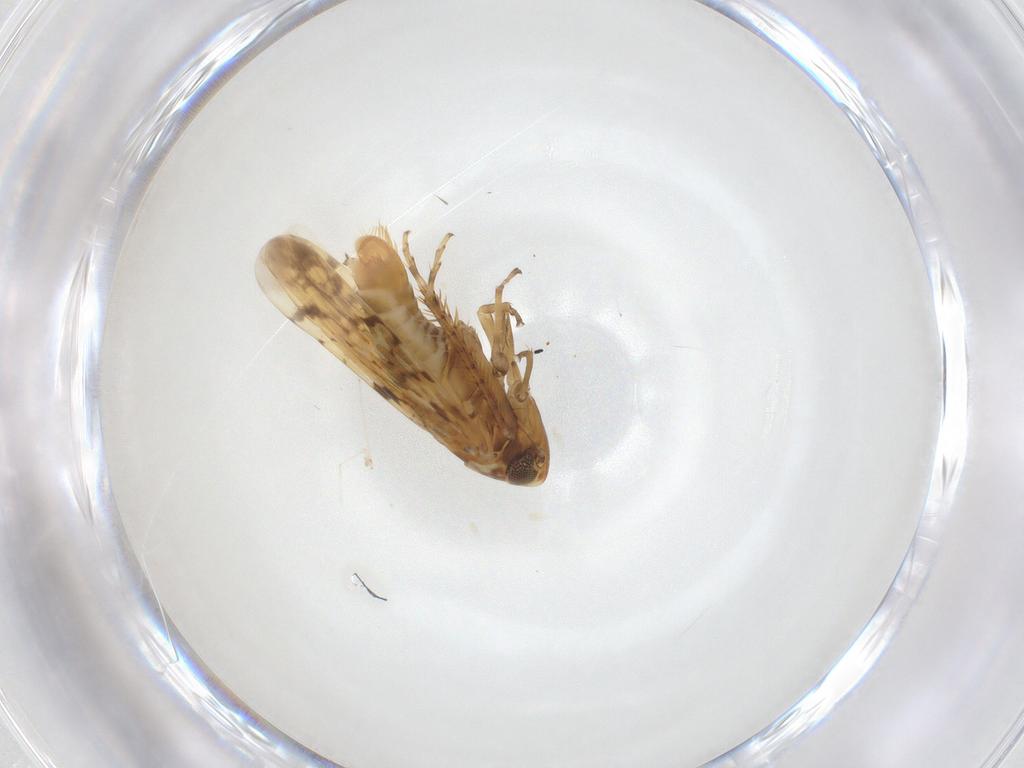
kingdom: Animalia
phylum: Arthropoda
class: Insecta
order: Hemiptera
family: Cicadellidae
